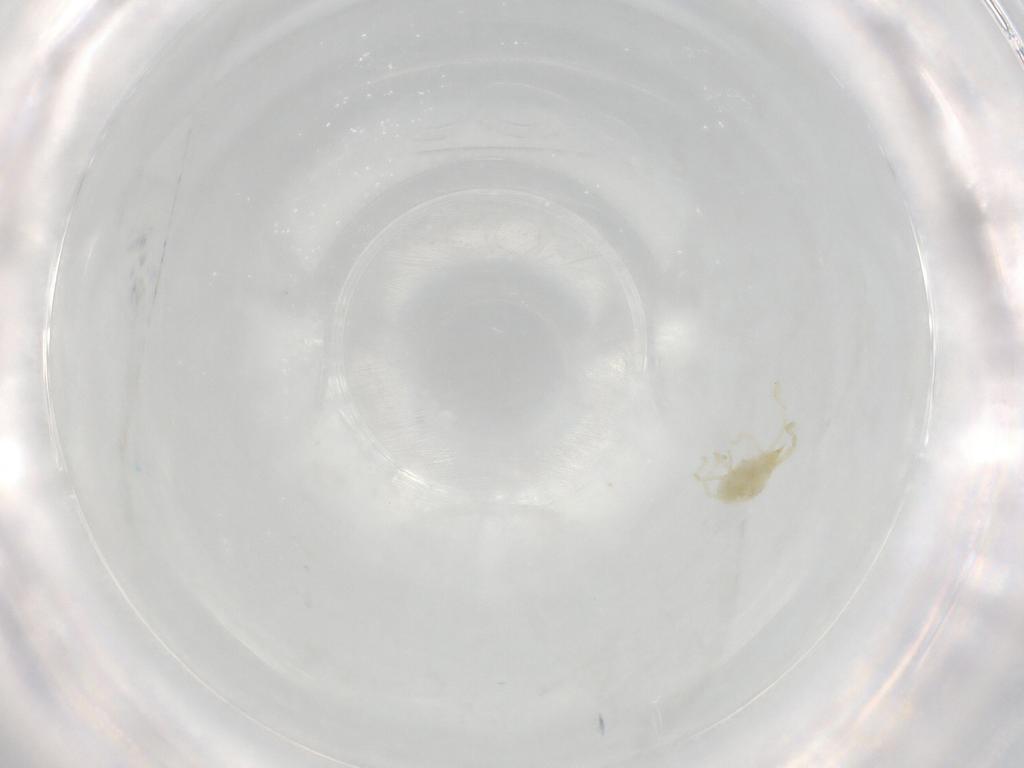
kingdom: Animalia
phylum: Arthropoda
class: Arachnida
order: Trombidiformes
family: Erythraeidae
